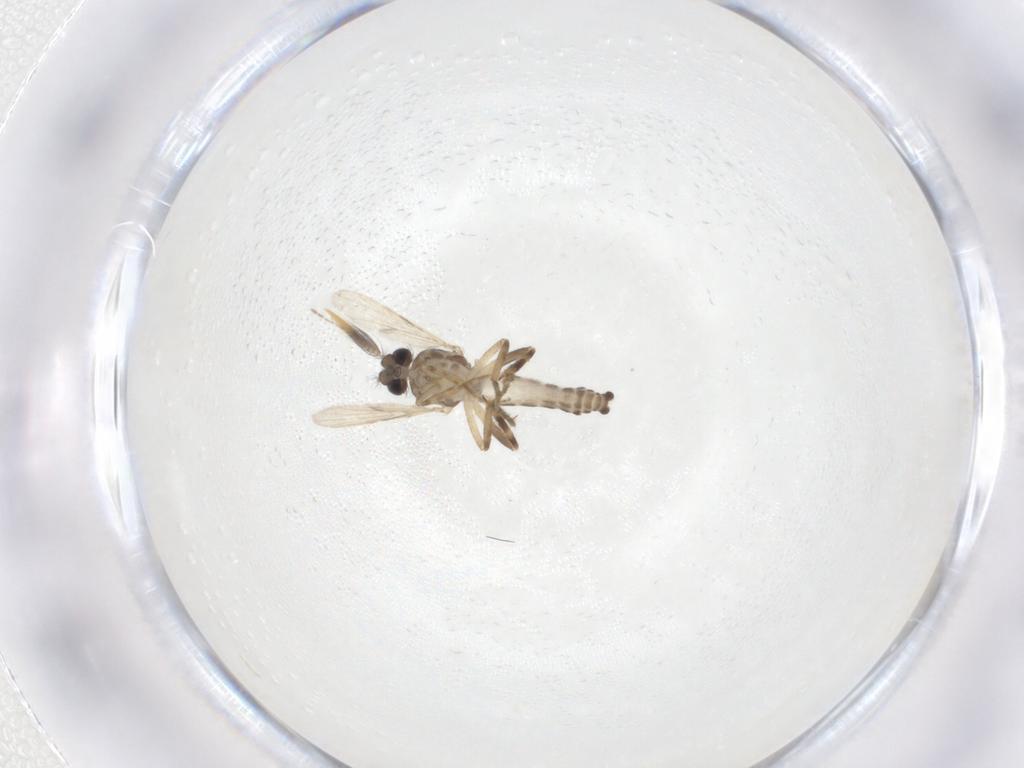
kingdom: Animalia
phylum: Arthropoda
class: Insecta
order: Diptera
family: Cecidomyiidae
